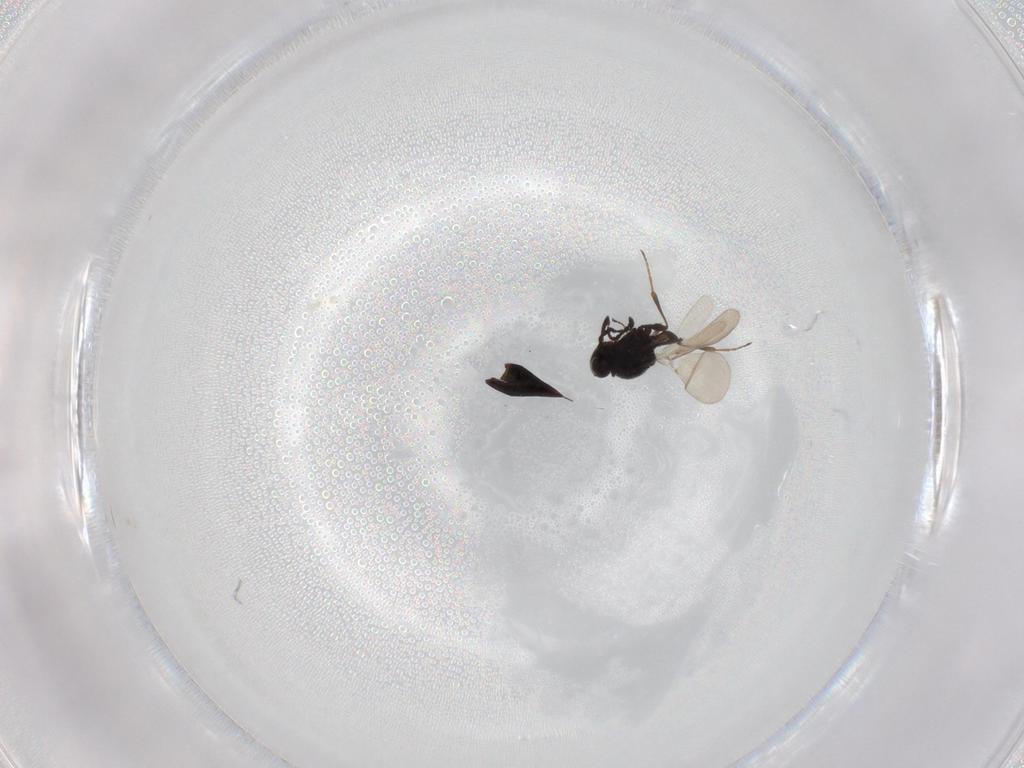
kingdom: Animalia
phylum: Arthropoda
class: Insecta
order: Hymenoptera
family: Platygastridae
